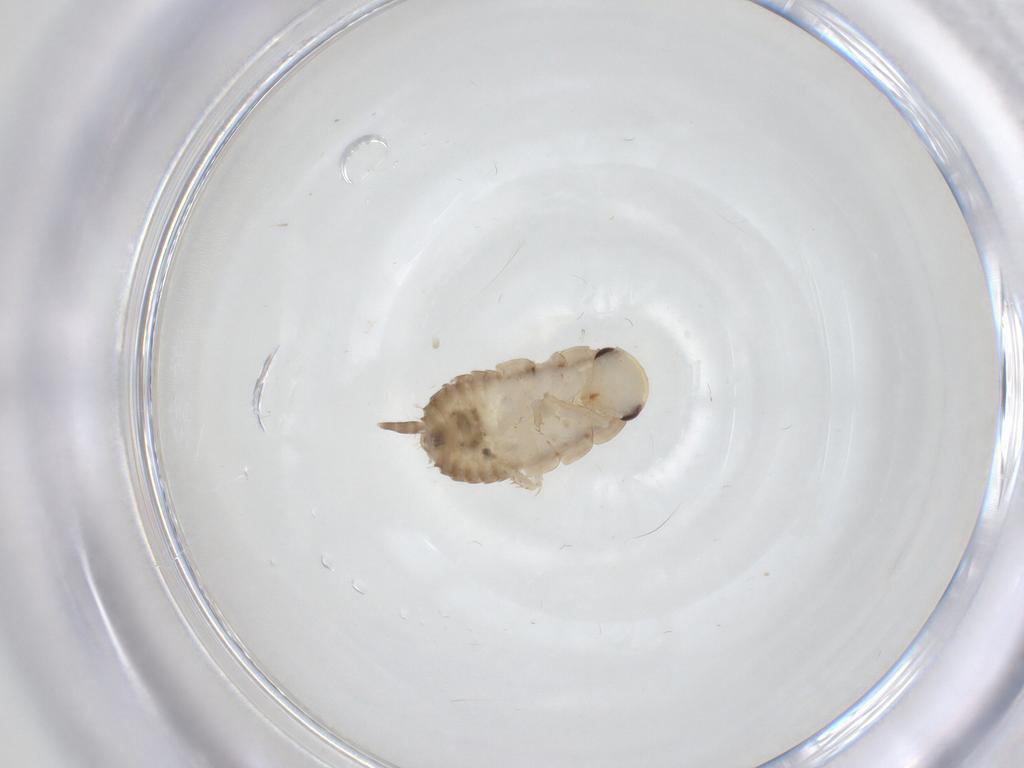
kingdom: Animalia
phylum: Arthropoda
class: Insecta
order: Blattodea
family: Ectobiidae
